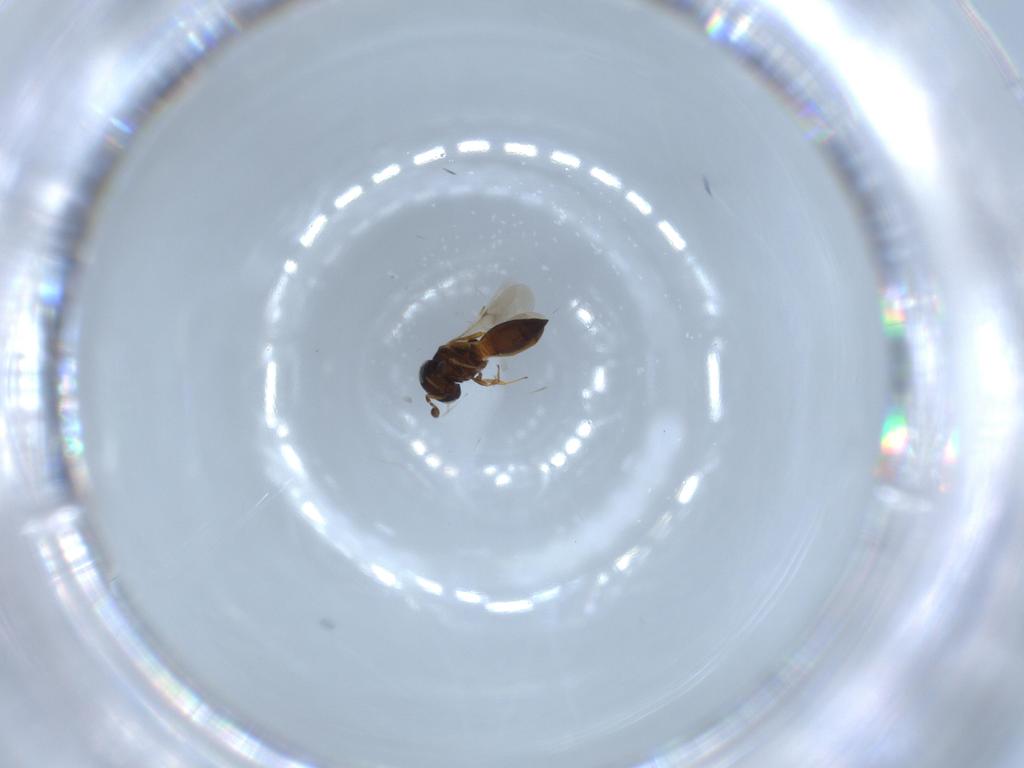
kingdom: Animalia
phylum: Arthropoda
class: Insecta
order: Hymenoptera
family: Scelionidae
